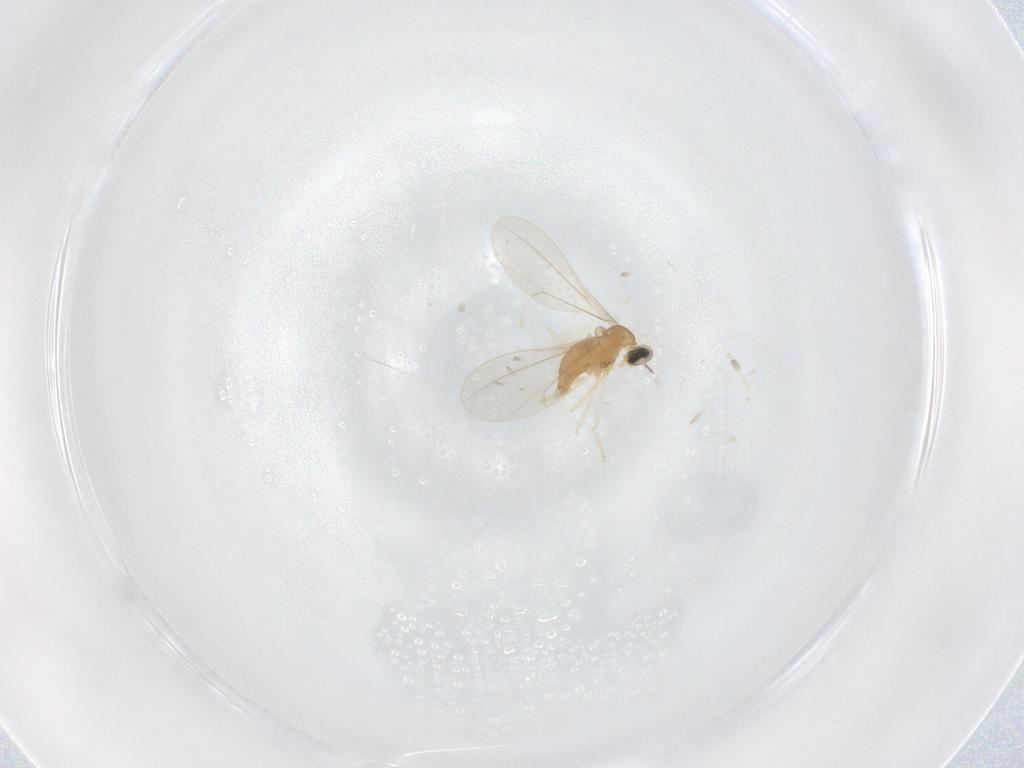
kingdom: Animalia
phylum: Arthropoda
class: Insecta
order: Diptera
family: Cecidomyiidae
